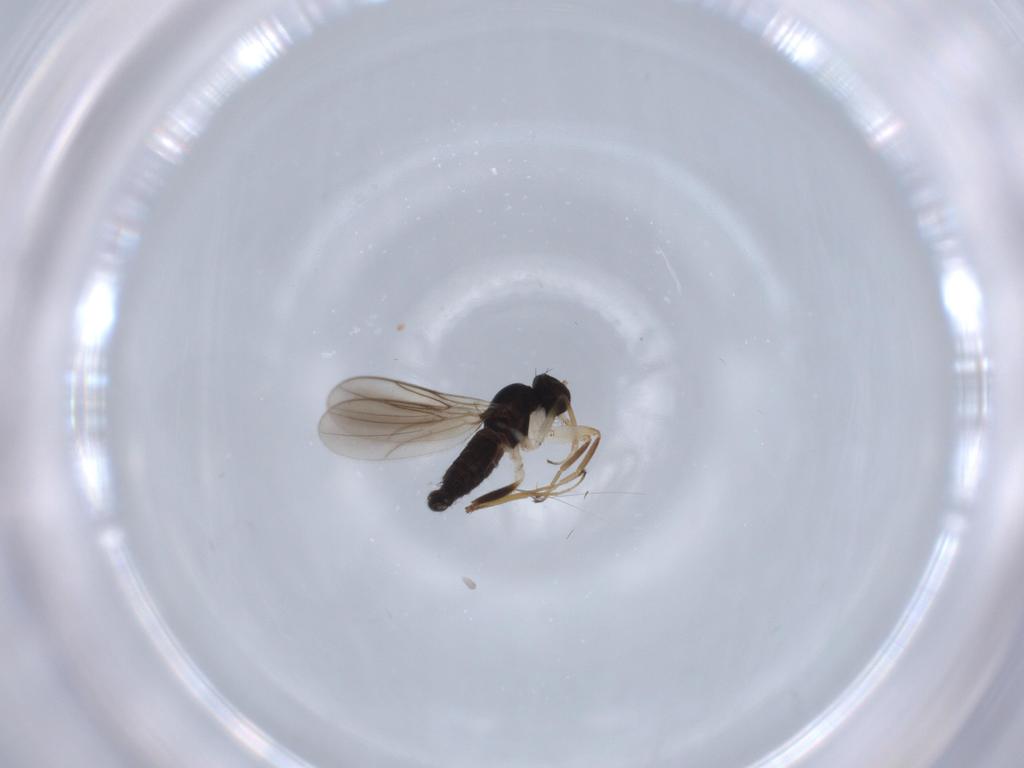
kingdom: Animalia
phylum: Arthropoda
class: Insecta
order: Diptera
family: Hybotidae
